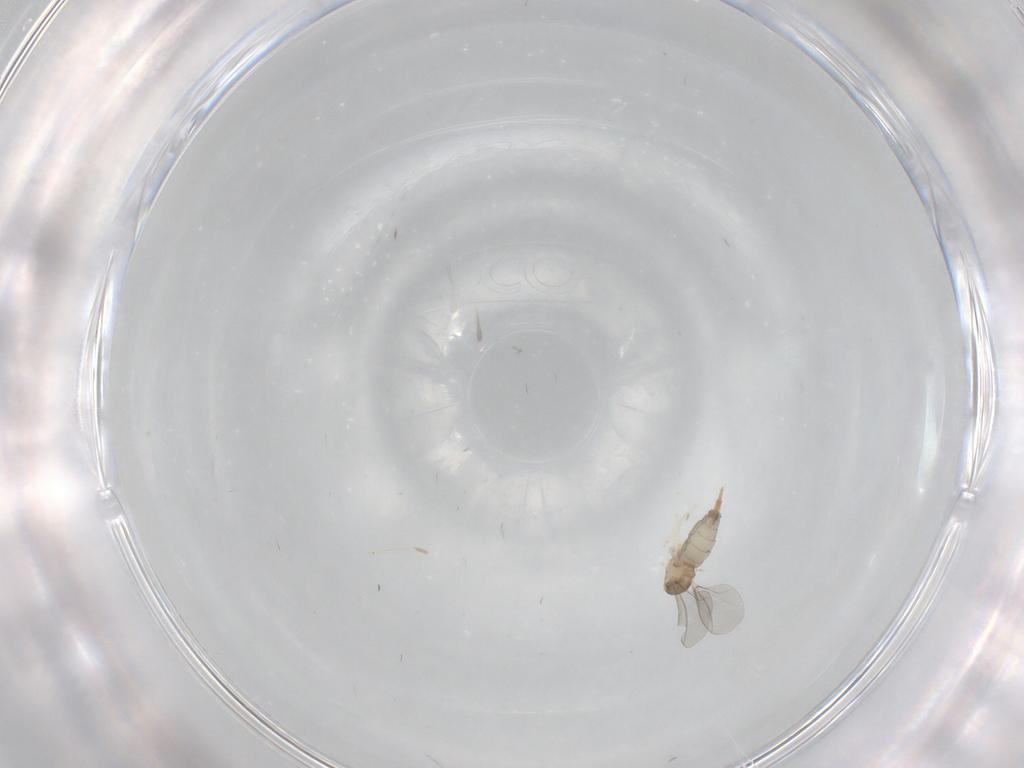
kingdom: Animalia
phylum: Arthropoda
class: Insecta
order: Diptera
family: Cecidomyiidae
